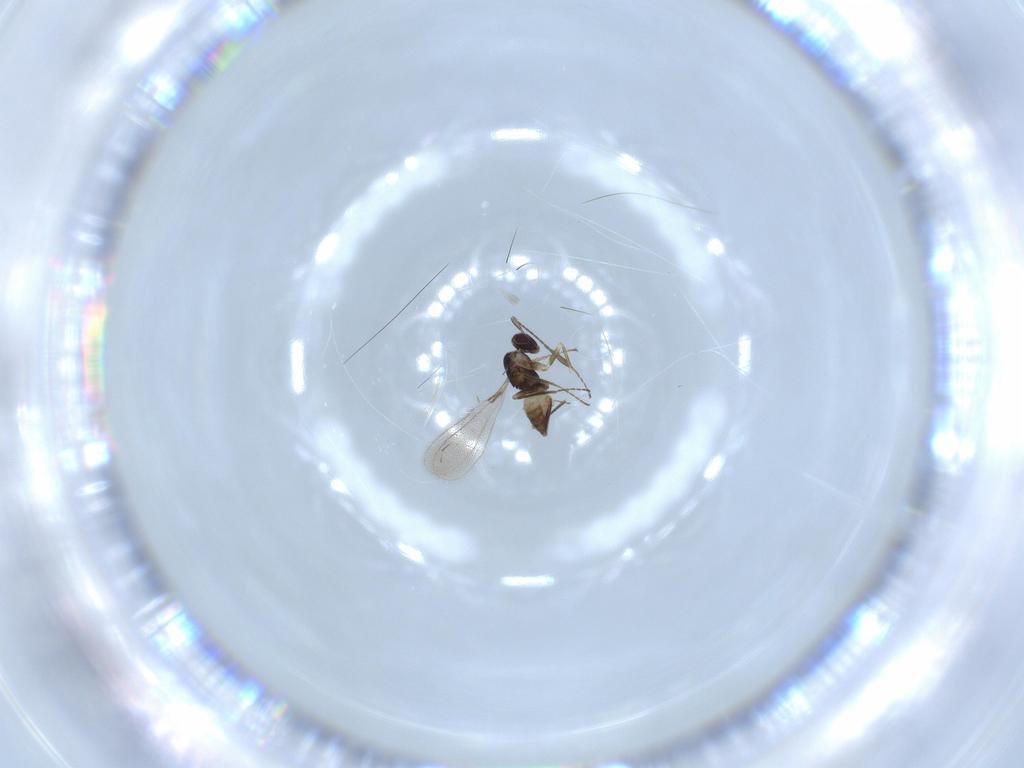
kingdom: Animalia
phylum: Arthropoda
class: Insecta
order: Hymenoptera
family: Mymaridae
